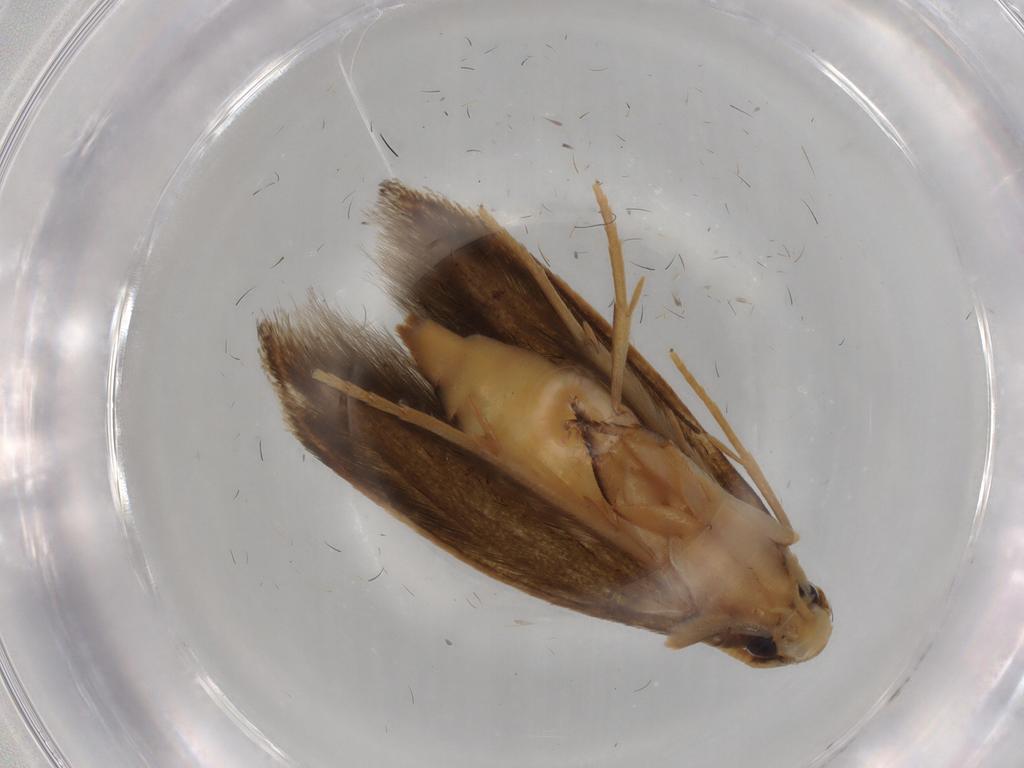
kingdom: Animalia
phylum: Arthropoda
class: Insecta
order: Lepidoptera
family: Tineidae
